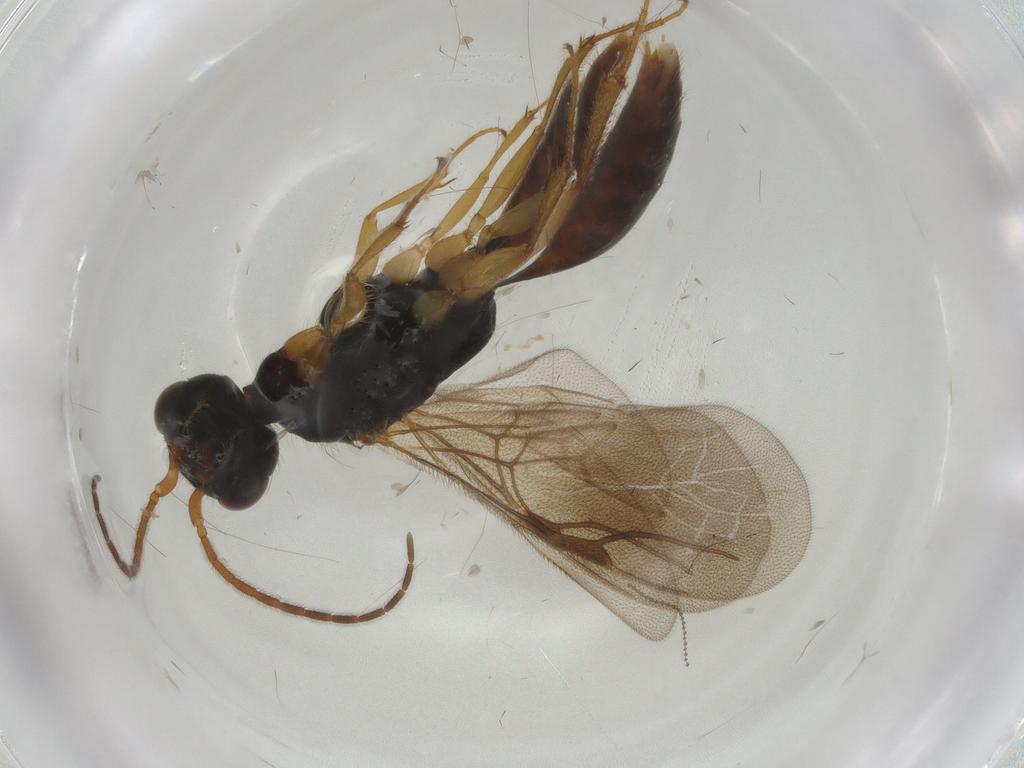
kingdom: Animalia
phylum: Arthropoda
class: Insecta
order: Hymenoptera
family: Bethylidae
